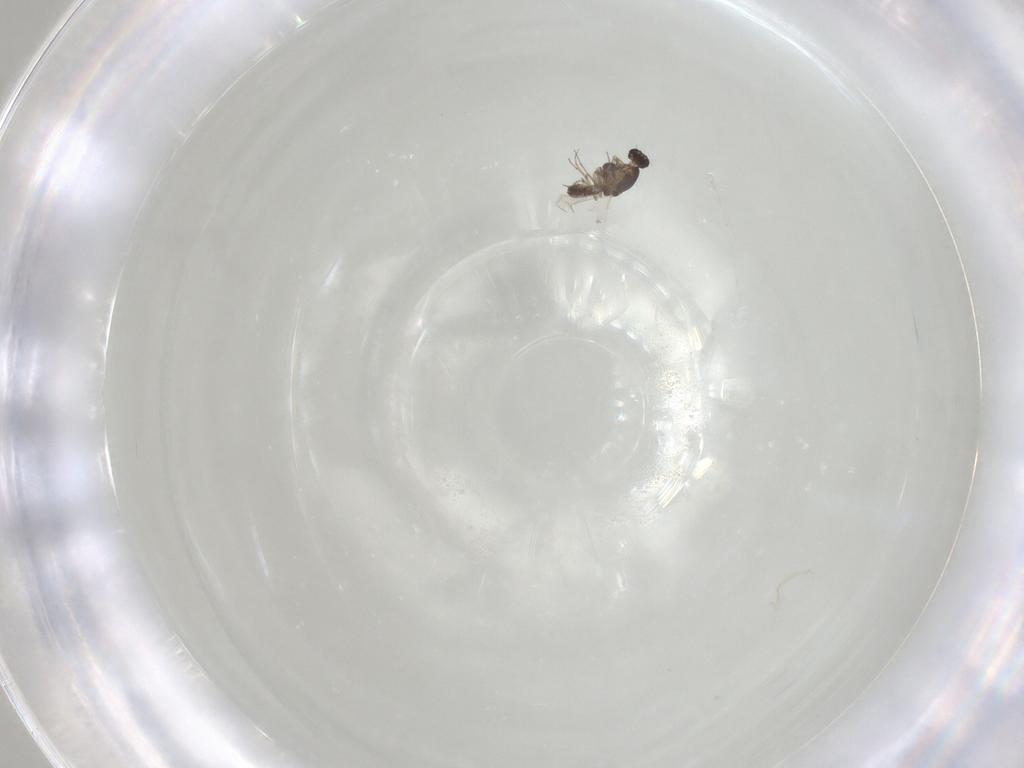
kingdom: Animalia
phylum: Arthropoda
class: Insecta
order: Diptera
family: Chironomidae
